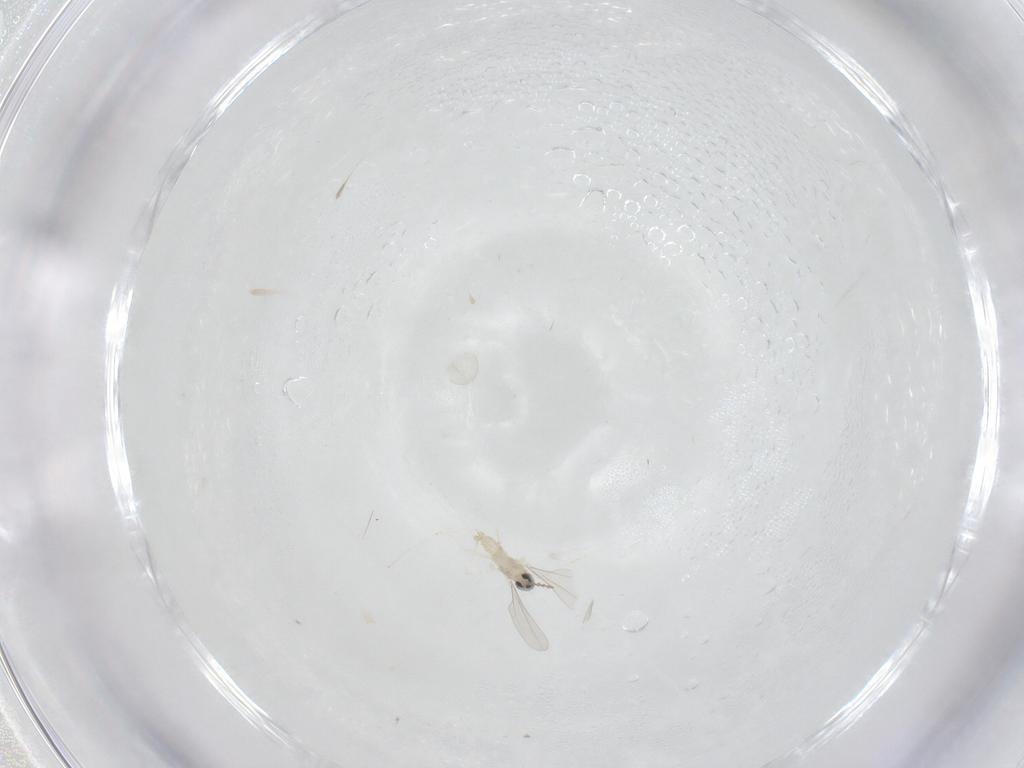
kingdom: Animalia
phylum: Arthropoda
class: Insecta
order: Diptera
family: Cecidomyiidae
